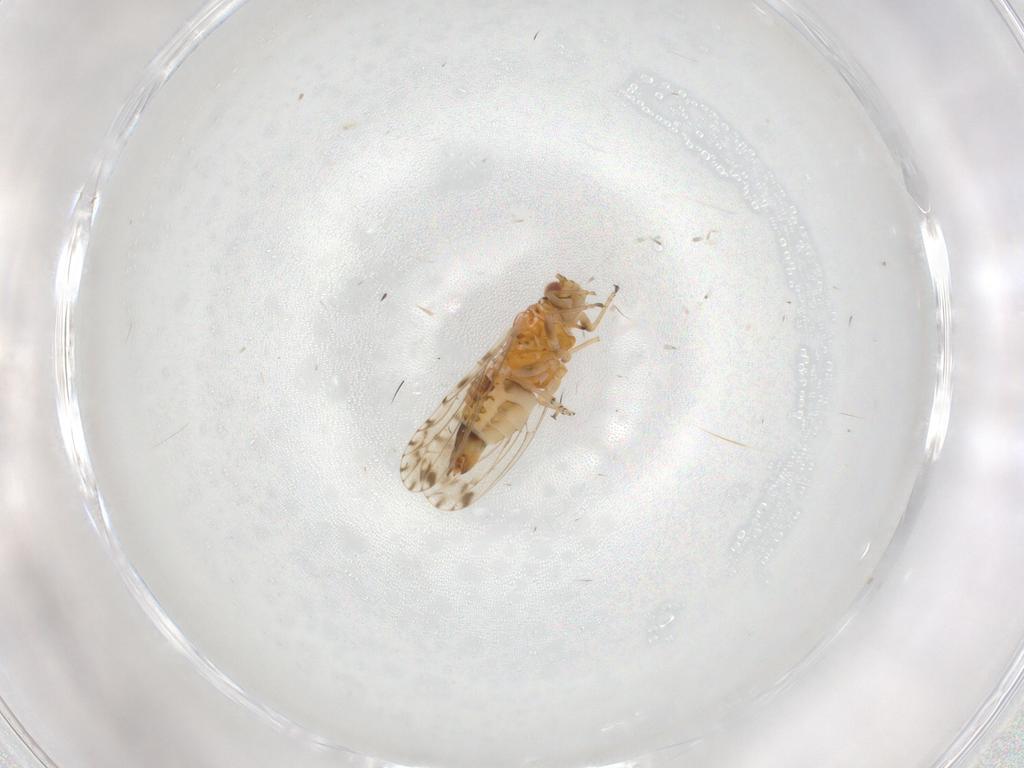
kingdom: Animalia
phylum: Arthropoda
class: Insecta
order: Hemiptera
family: Psyllidae
